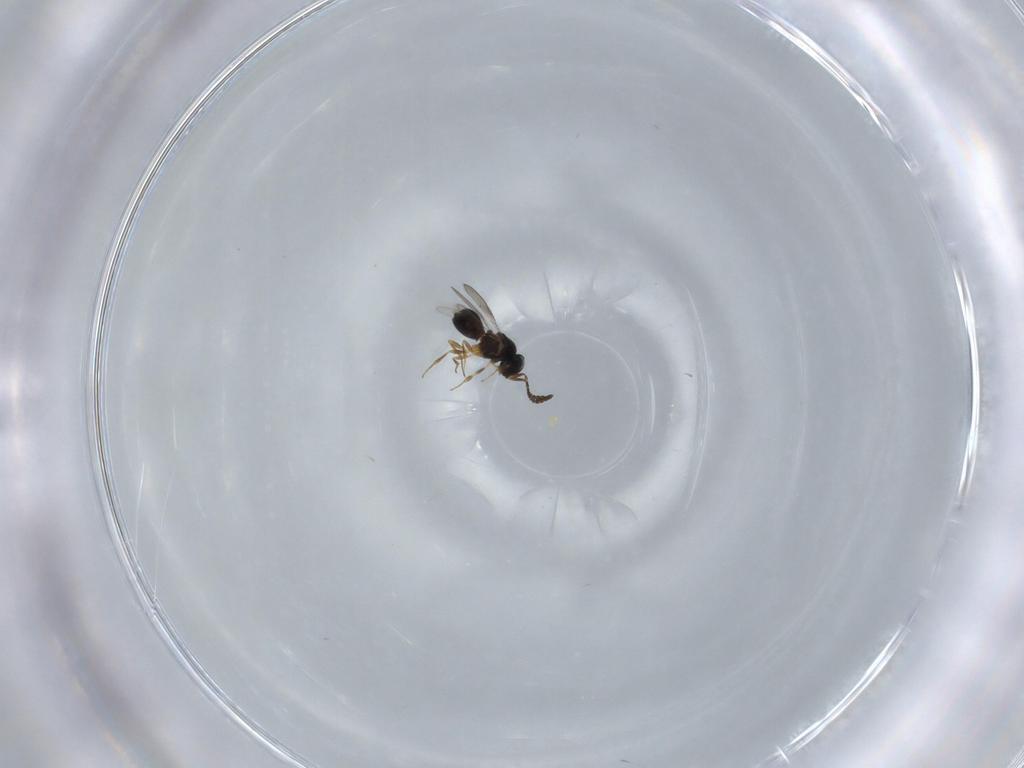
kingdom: Animalia
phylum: Arthropoda
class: Insecta
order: Hymenoptera
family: Scelionidae
